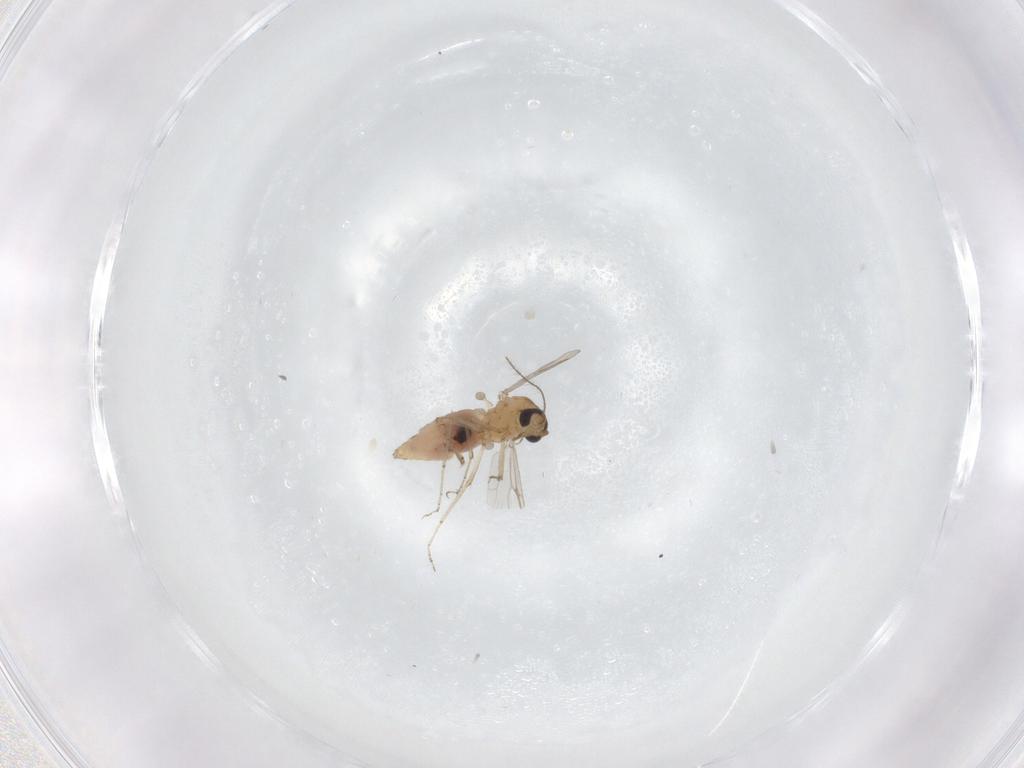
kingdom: Animalia
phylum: Arthropoda
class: Insecta
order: Diptera
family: Ceratopogonidae
